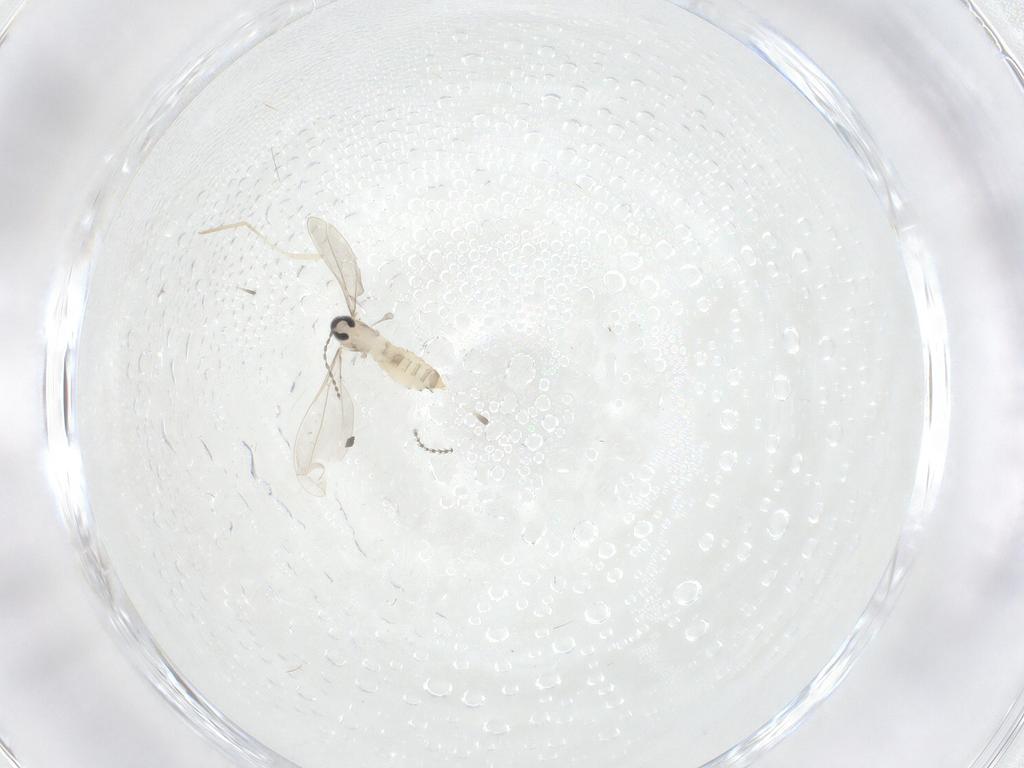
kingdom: Animalia
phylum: Arthropoda
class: Insecta
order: Diptera
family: Cecidomyiidae
